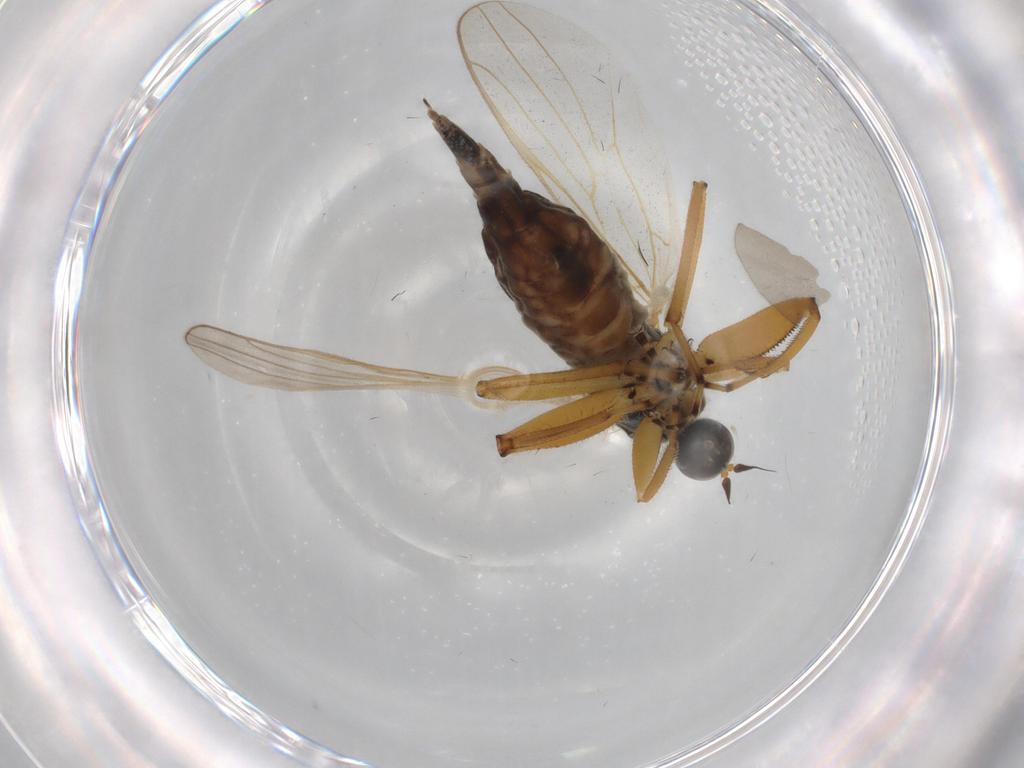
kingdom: Animalia
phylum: Arthropoda
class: Insecta
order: Diptera
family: Hybotidae
